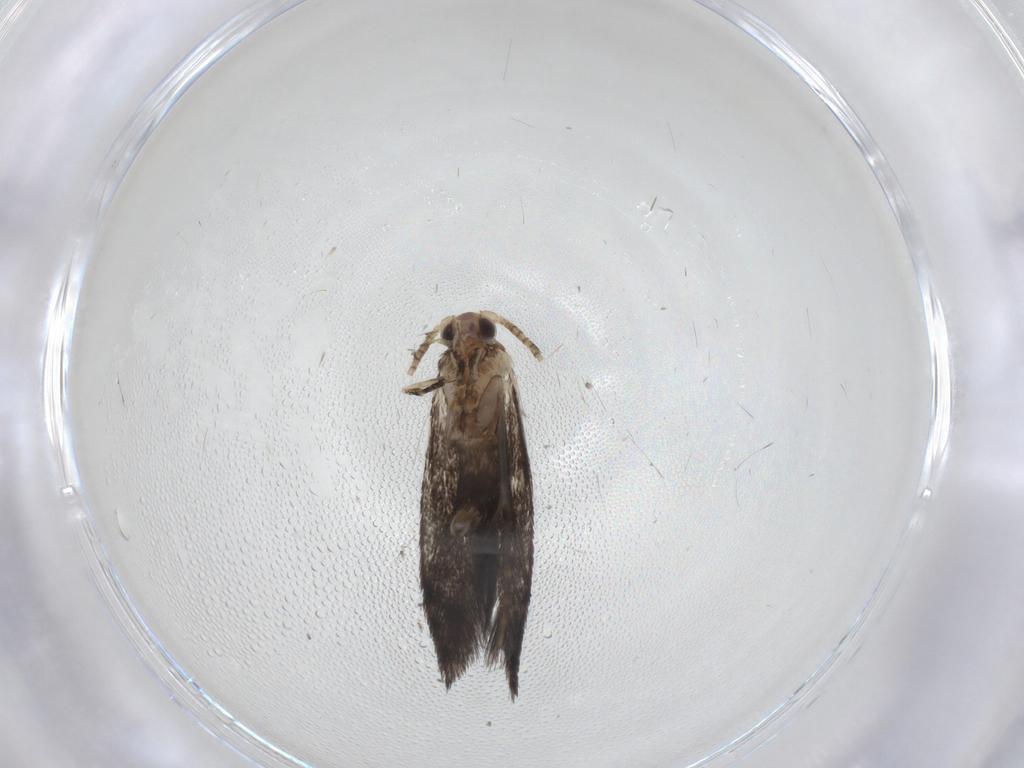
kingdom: Animalia
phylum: Arthropoda
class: Insecta
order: Lepidoptera
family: Tineidae
